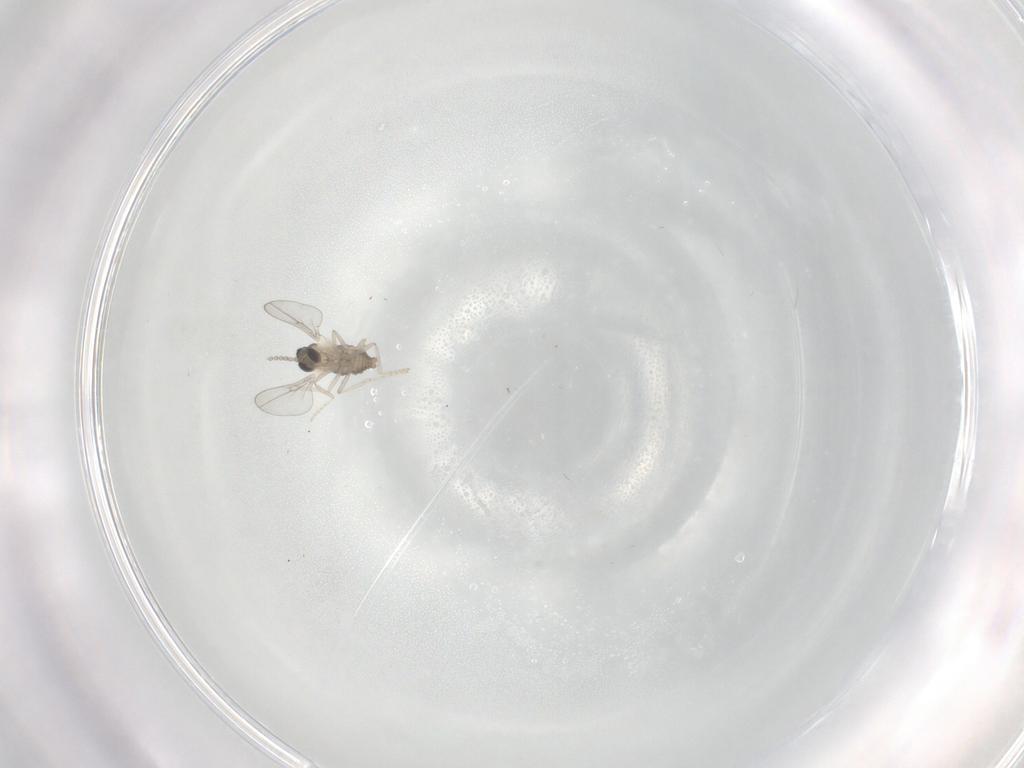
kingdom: Animalia
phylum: Arthropoda
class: Insecta
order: Diptera
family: Cecidomyiidae
